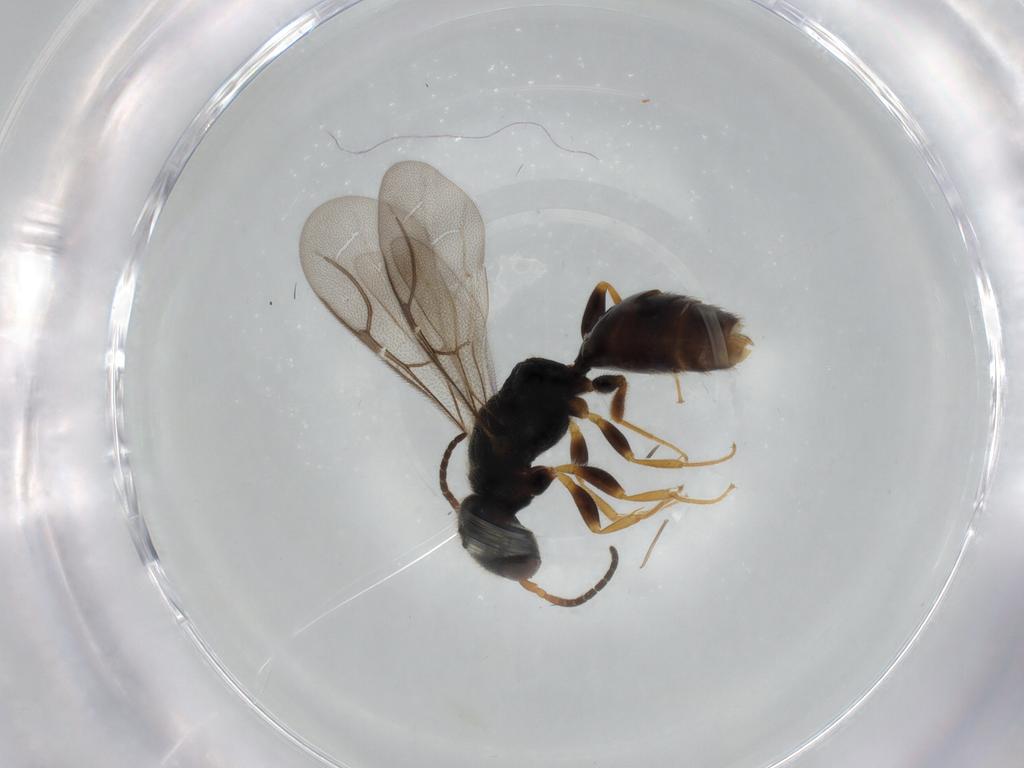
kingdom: Animalia
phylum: Arthropoda
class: Insecta
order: Hymenoptera
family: Bethylidae
